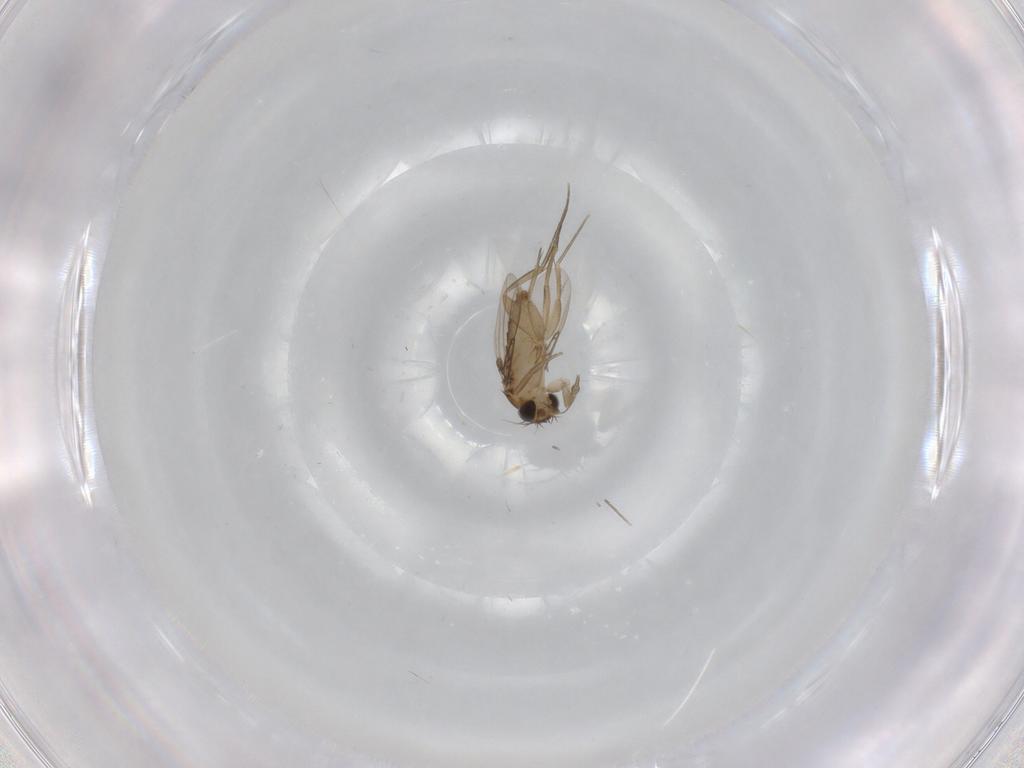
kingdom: Animalia
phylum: Arthropoda
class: Insecta
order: Diptera
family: Phoridae
